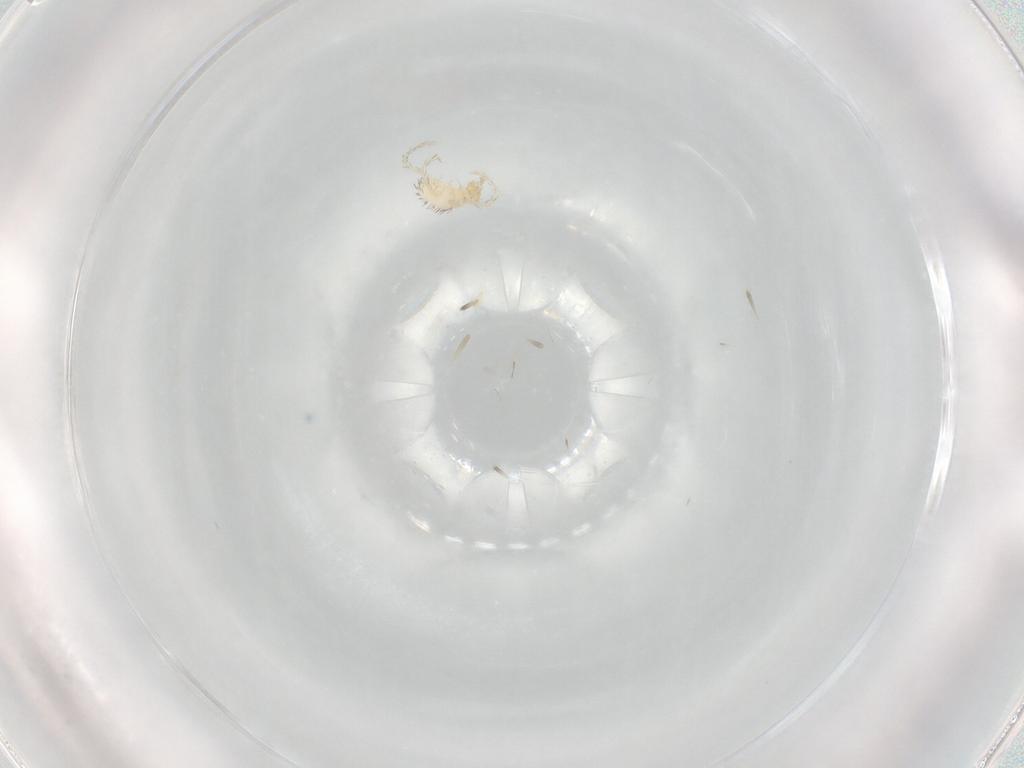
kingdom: Animalia
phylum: Arthropoda
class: Arachnida
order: Trombidiformes
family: Erythraeidae
